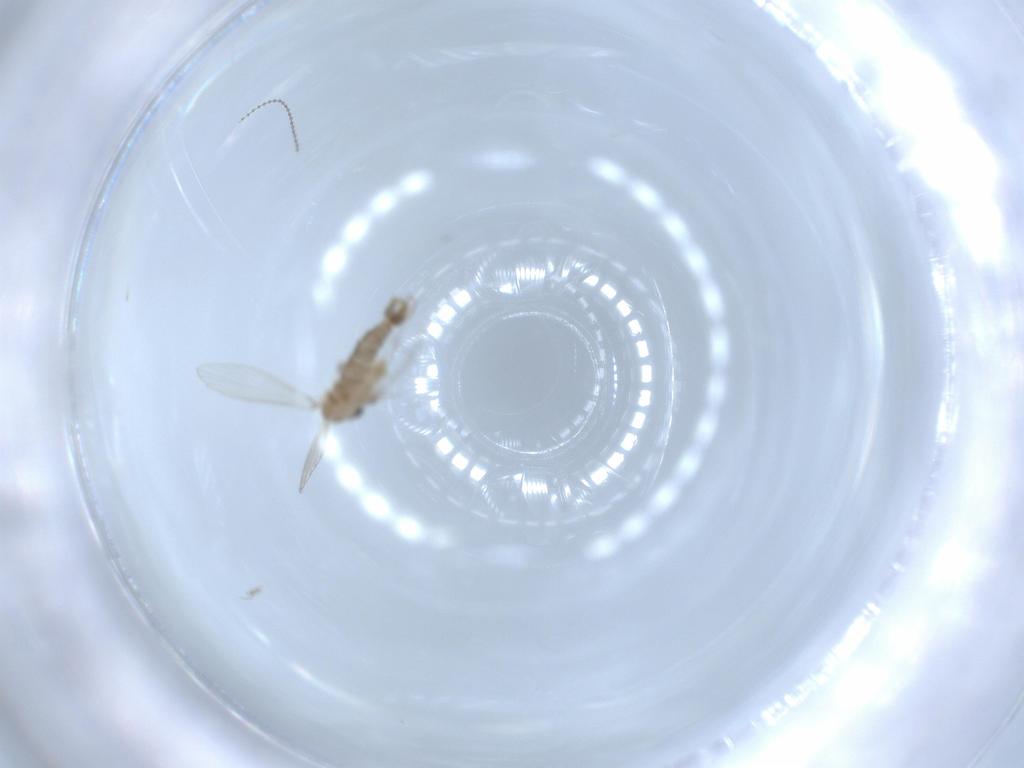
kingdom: Animalia
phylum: Arthropoda
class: Insecta
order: Diptera
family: Psychodidae
